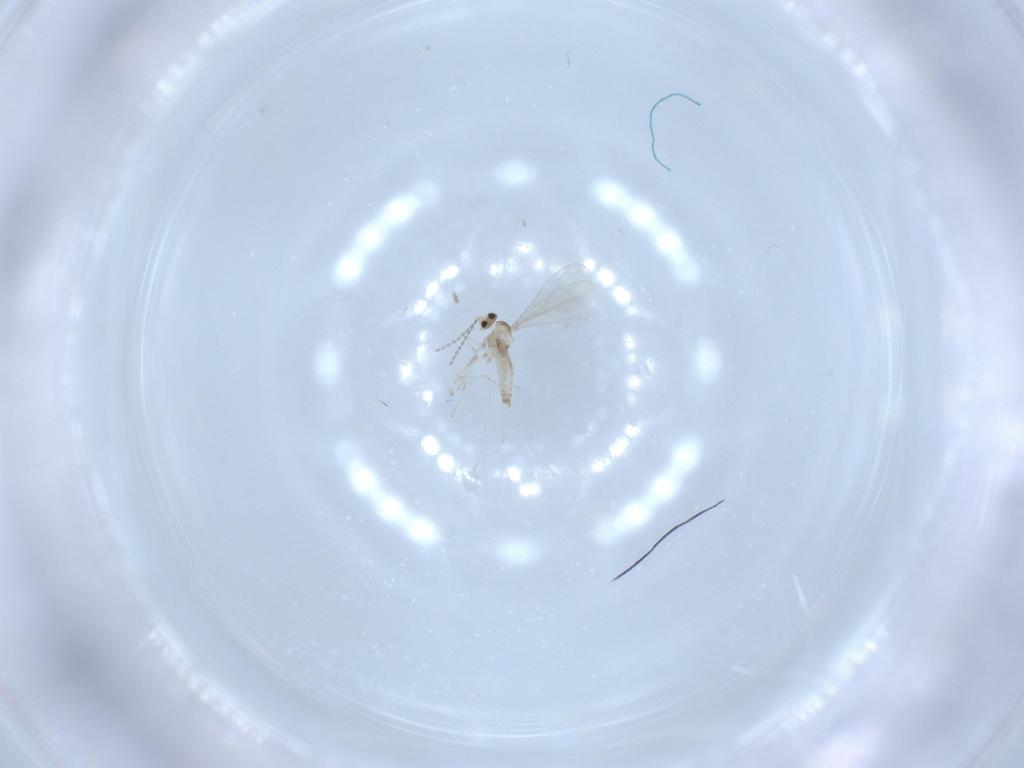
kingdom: Animalia
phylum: Arthropoda
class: Insecta
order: Diptera
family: Cecidomyiidae
